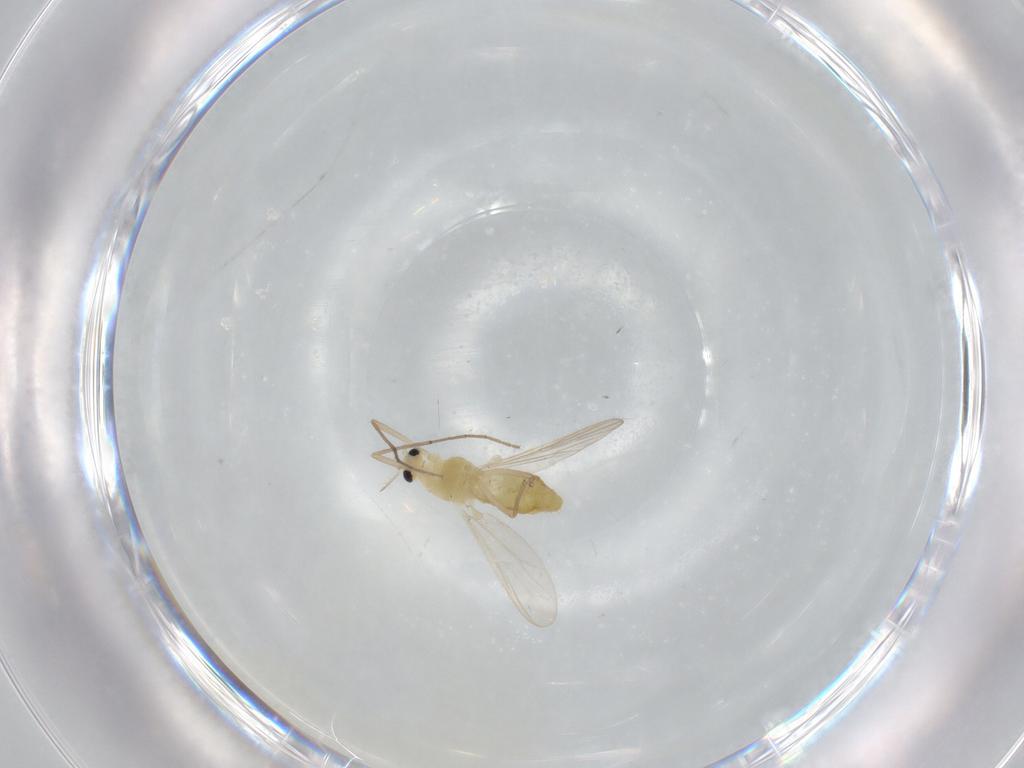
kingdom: Animalia
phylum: Arthropoda
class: Insecta
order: Diptera
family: Chironomidae
